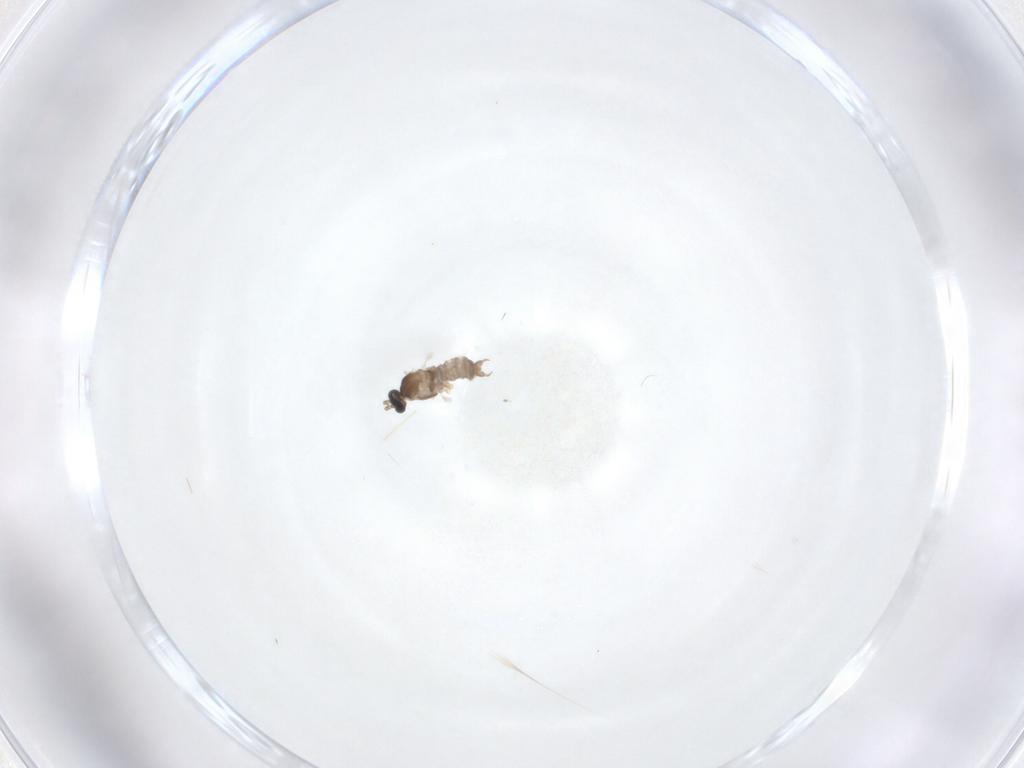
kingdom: Animalia
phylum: Arthropoda
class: Insecta
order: Diptera
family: Cecidomyiidae
